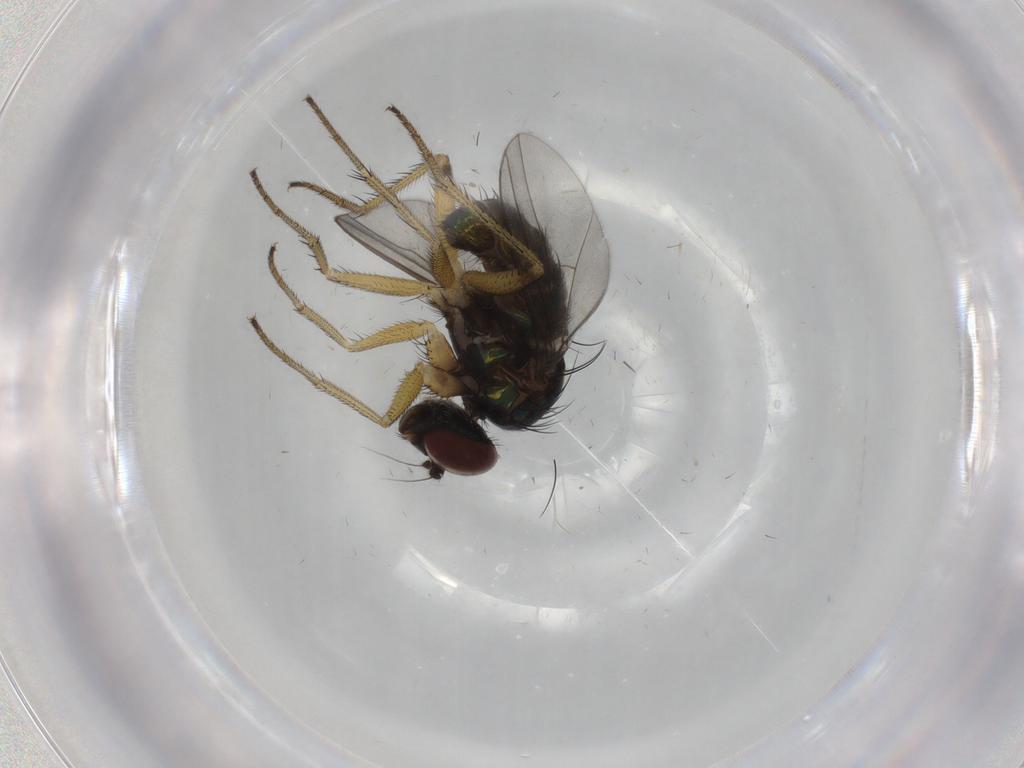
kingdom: Animalia
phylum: Arthropoda
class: Insecta
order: Diptera
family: Dolichopodidae
